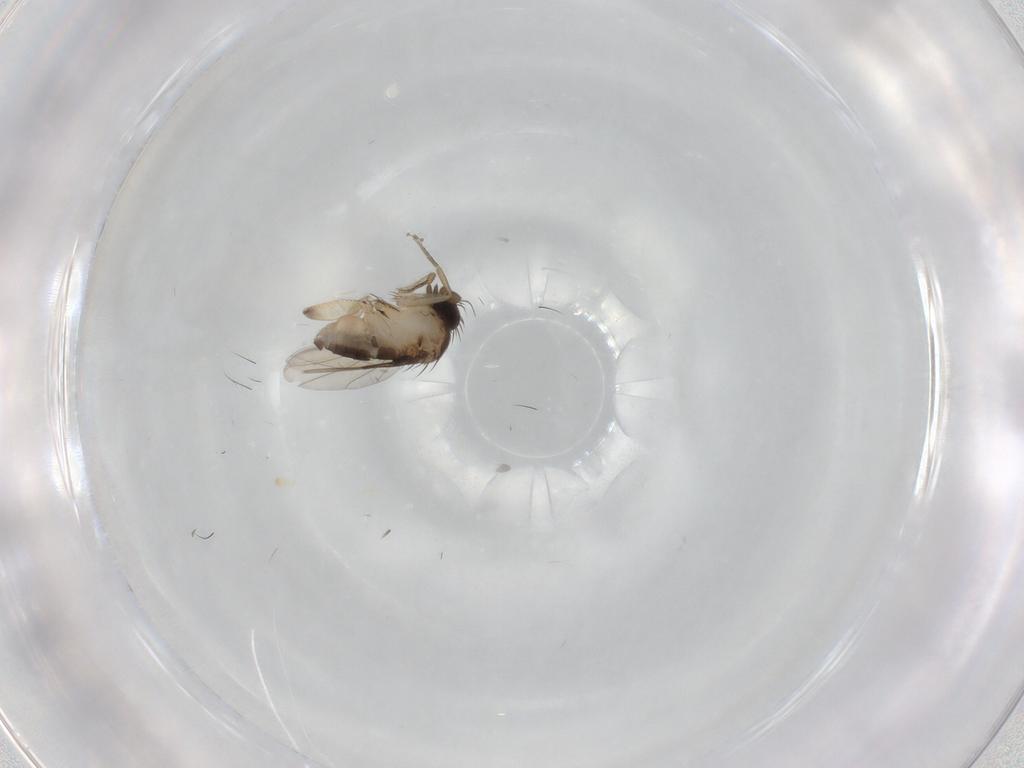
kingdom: Animalia
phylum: Arthropoda
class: Insecta
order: Diptera
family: Phoridae
